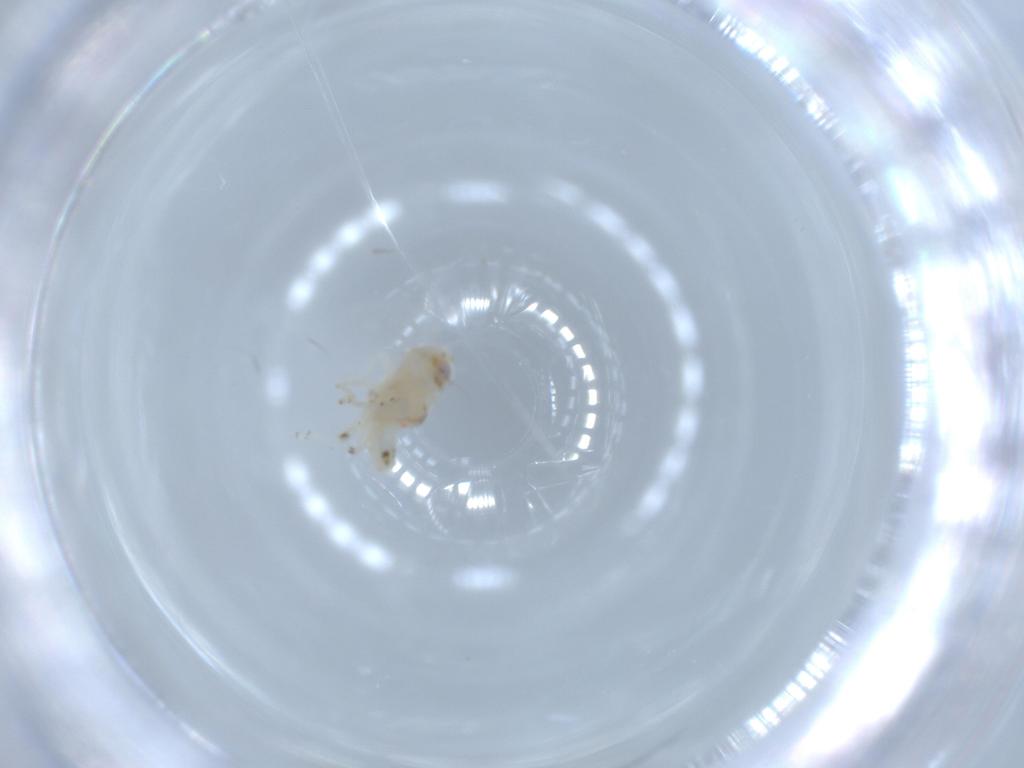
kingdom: Animalia
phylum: Arthropoda
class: Insecta
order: Hemiptera
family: Nogodinidae
